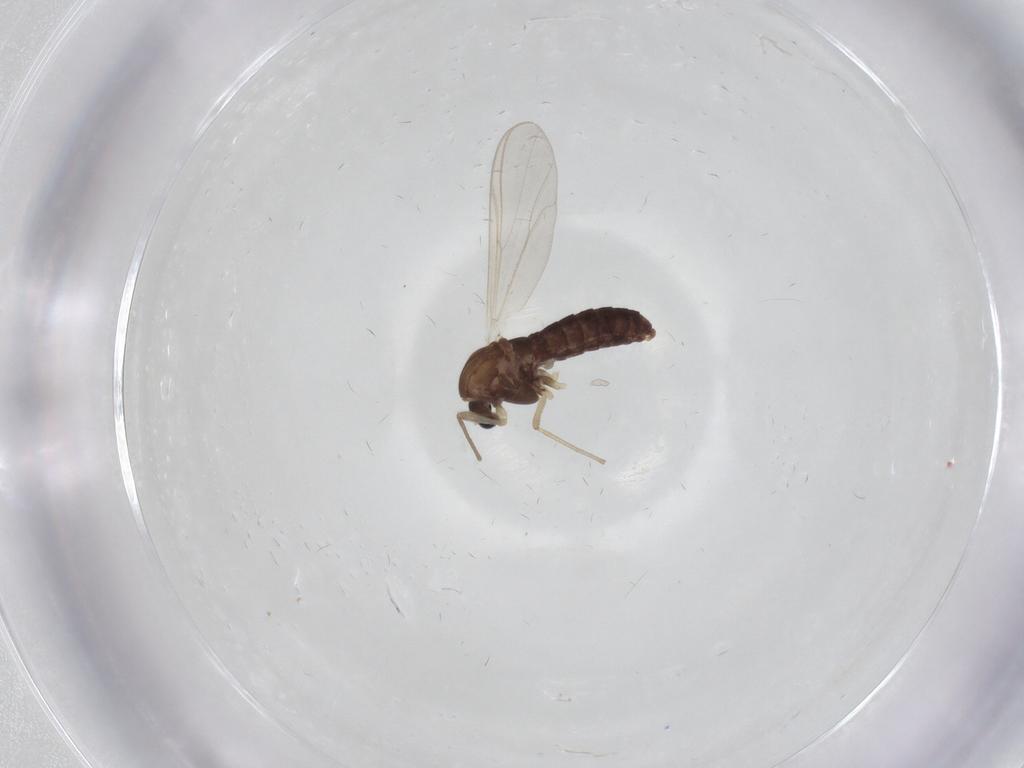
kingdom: Animalia
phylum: Arthropoda
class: Insecta
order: Diptera
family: Chironomidae
